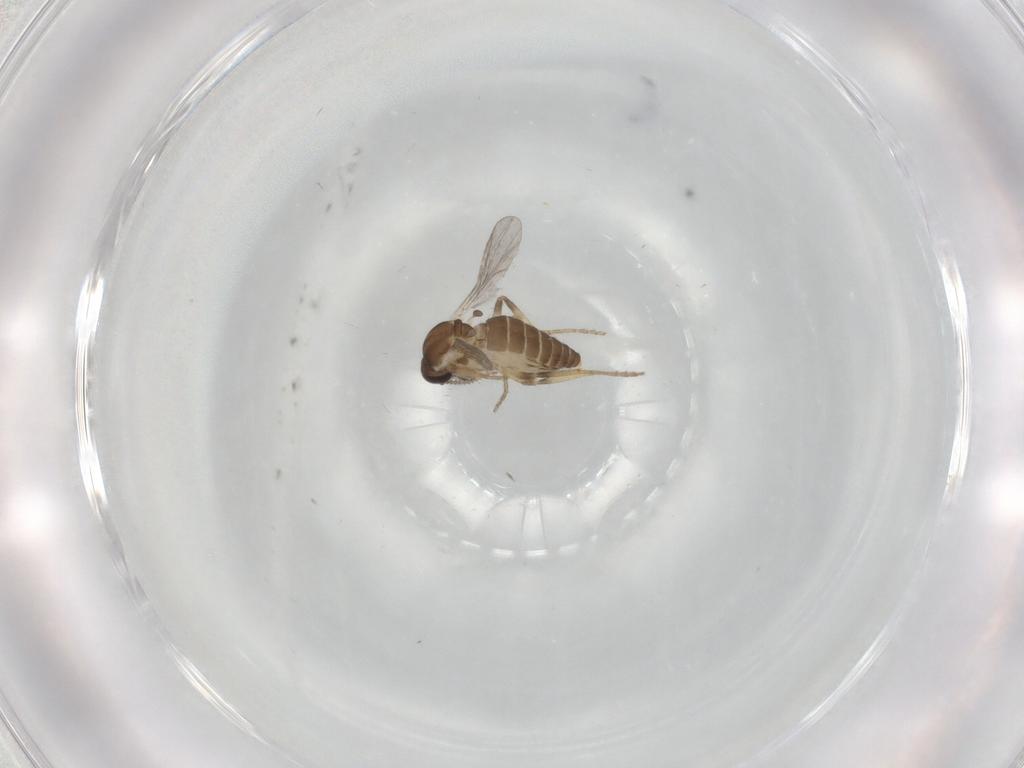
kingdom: Animalia
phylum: Arthropoda
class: Insecta
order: Diptera
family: Ceratopogonidae
